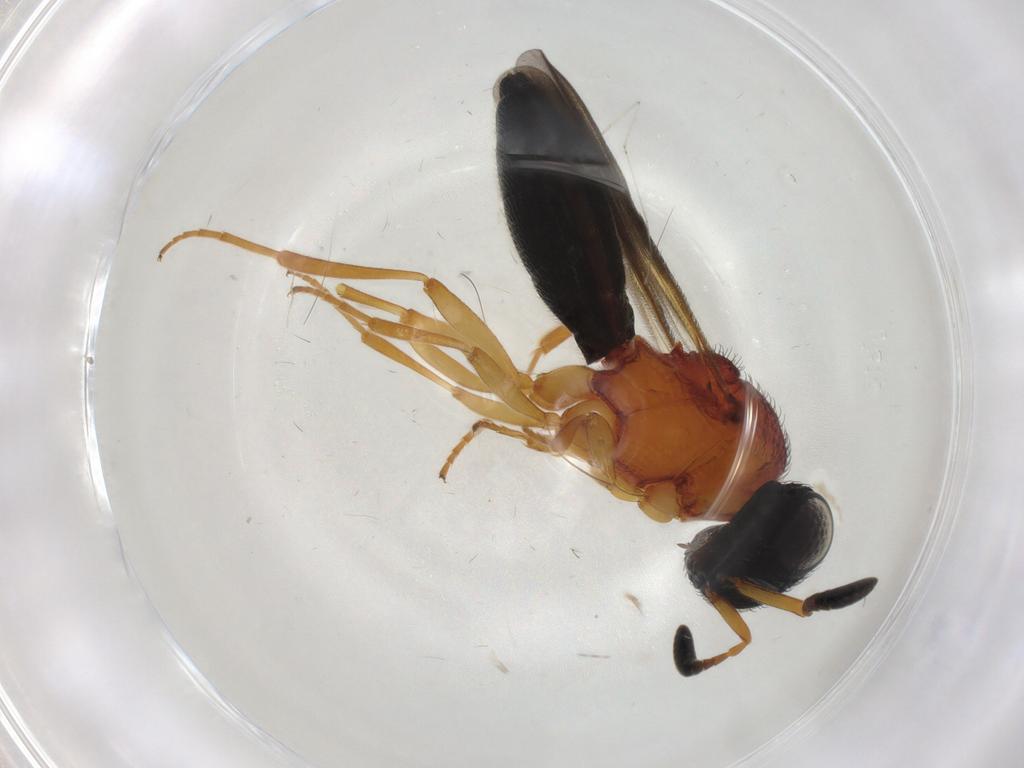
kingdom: Animalia
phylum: Arthropoda
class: Insecta
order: Hymenoptera
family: Scelionidae
